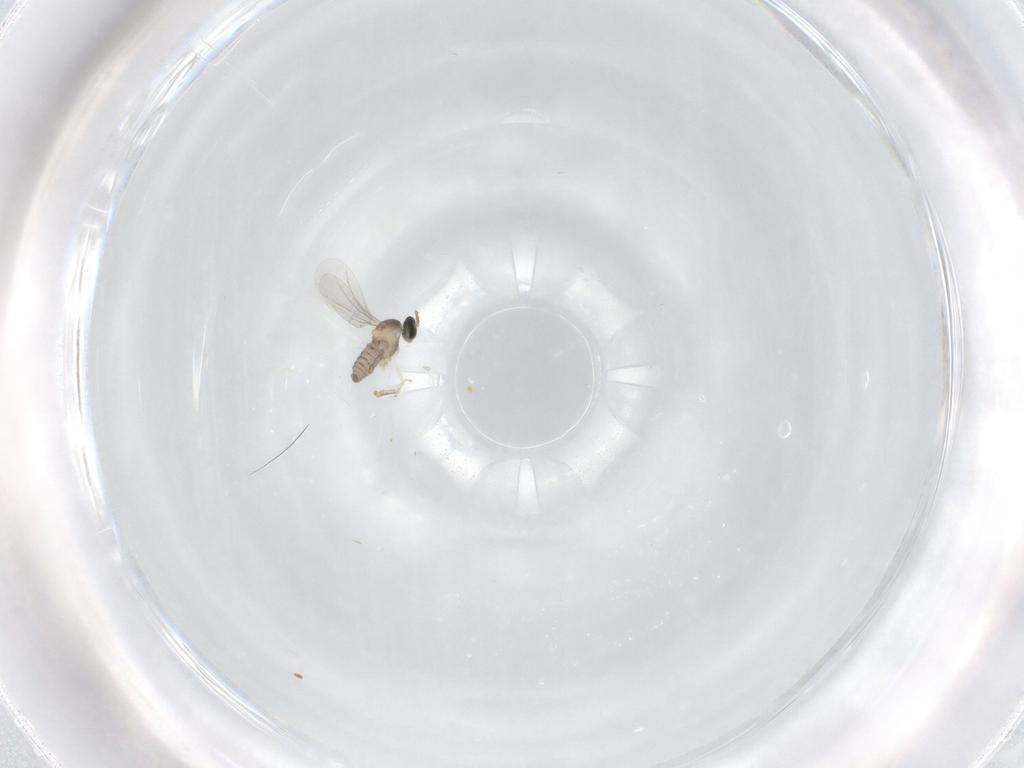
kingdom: Animalia
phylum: Arthropoda
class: Insecta
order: Diptera
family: Cecidomyiidae
